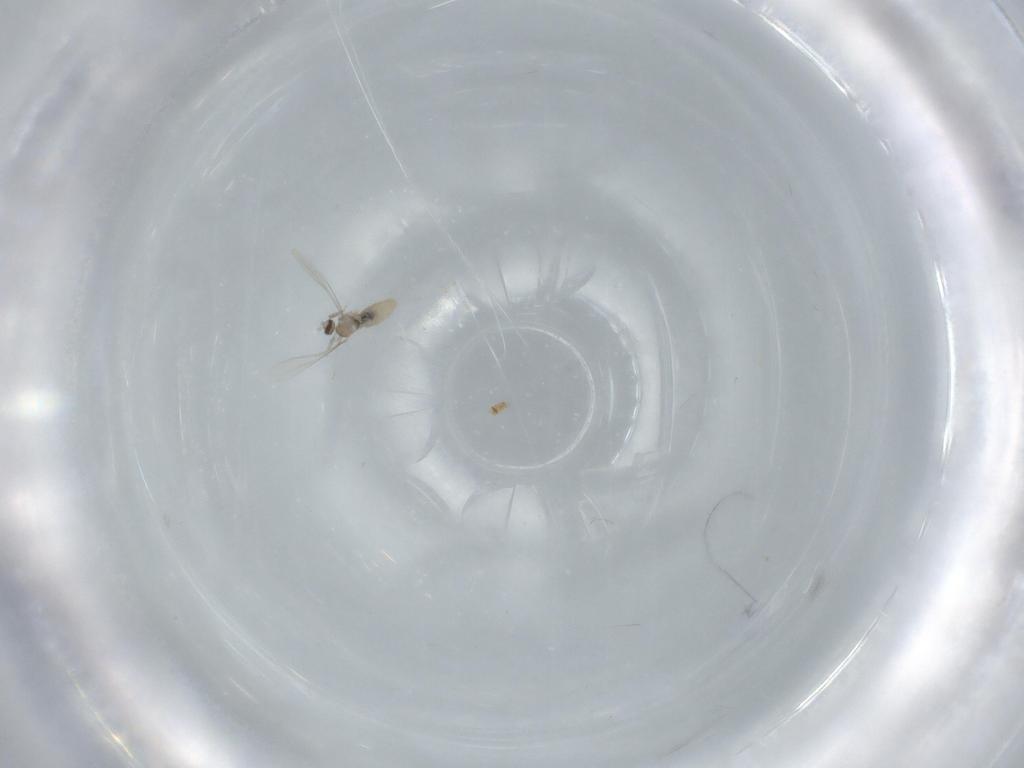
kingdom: Animalia
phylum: Arthropoda
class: Insecta
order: Diptera
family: Cecidomyiidae
